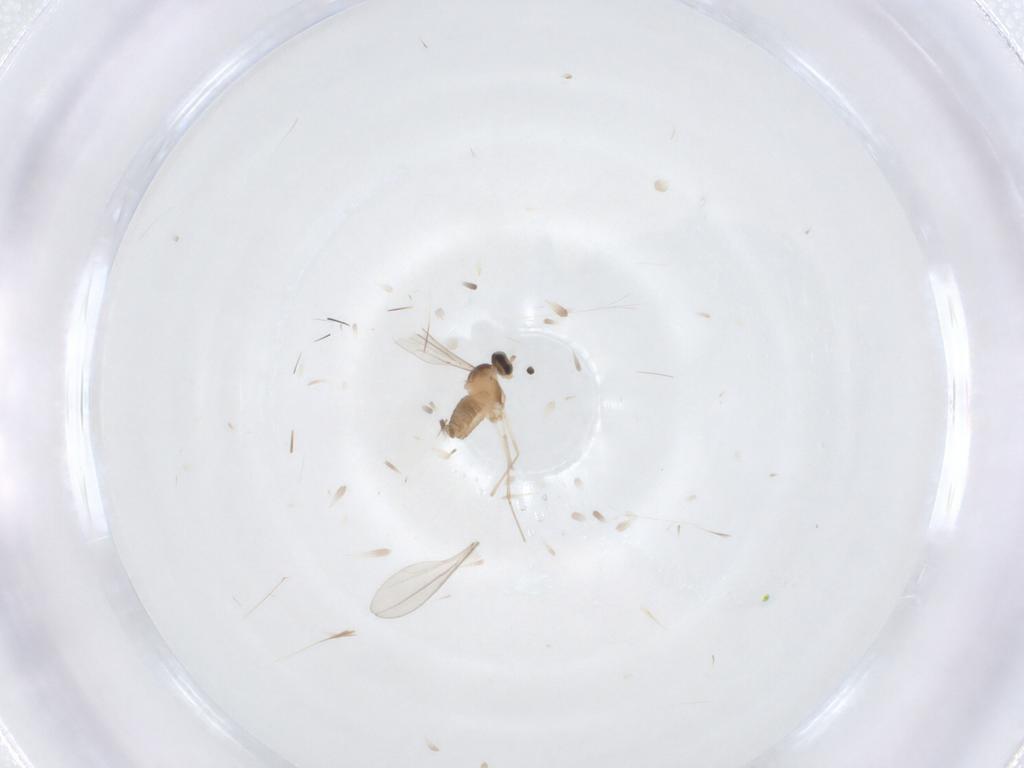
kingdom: Animalia
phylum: Arthropoda
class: Insecta
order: Diptera
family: Cecidomyiidae
